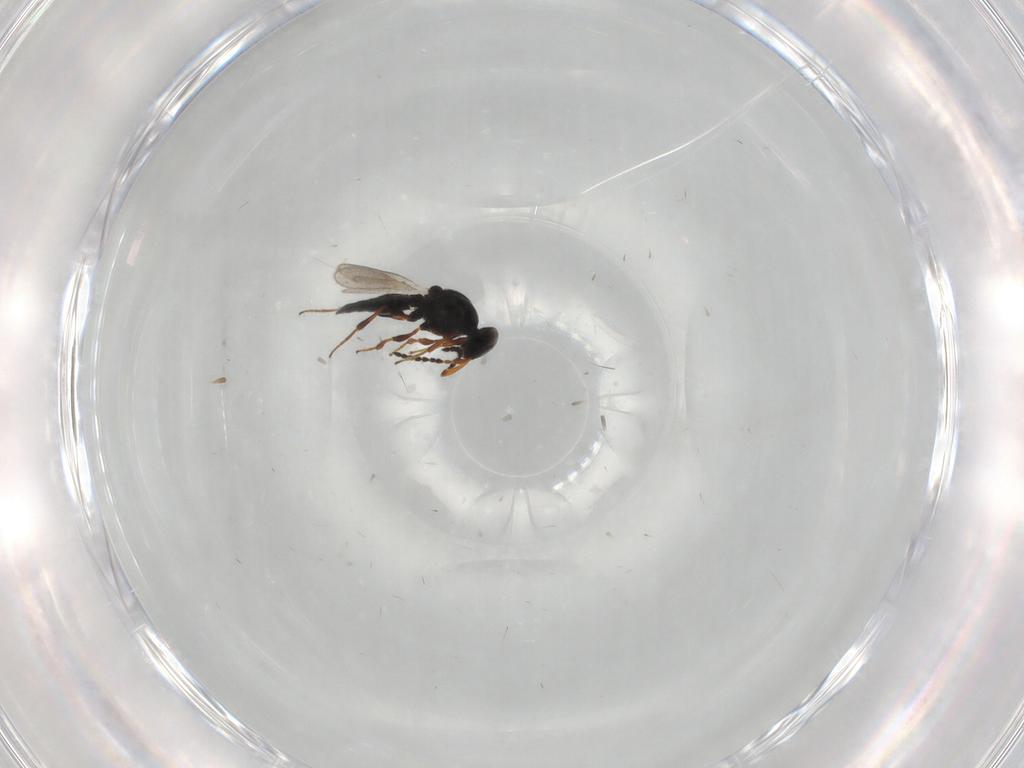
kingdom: Animalia
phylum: Arthropoda
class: Insecta
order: Hymenoptera
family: Platygastridae
